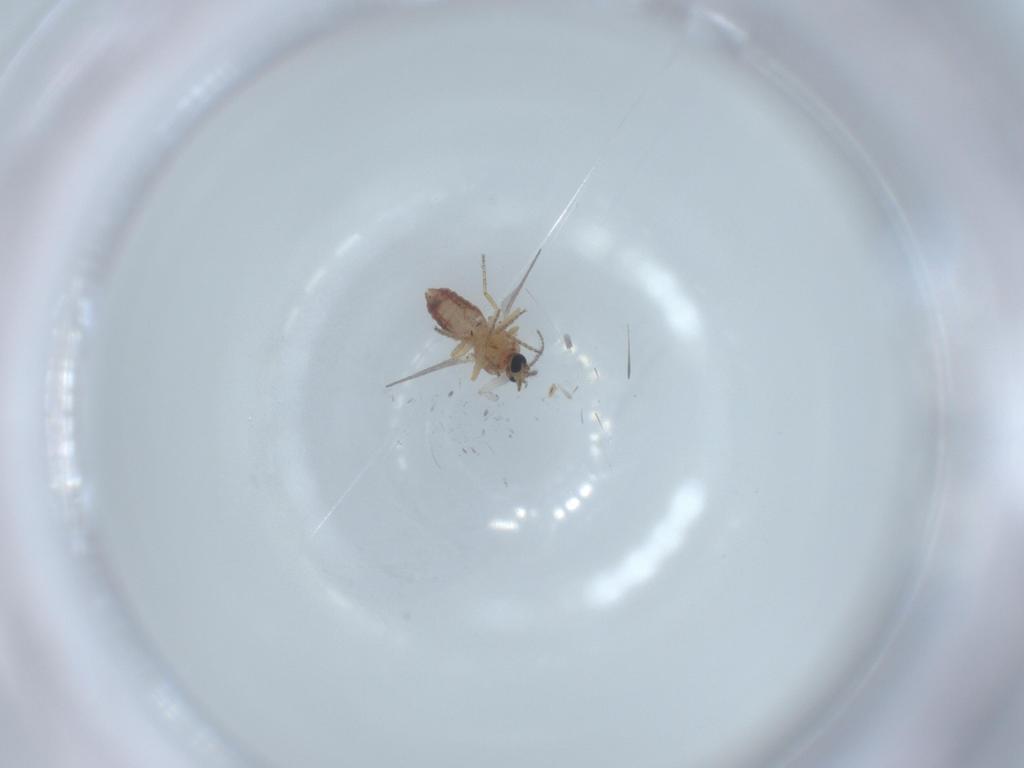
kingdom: Animalia
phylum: Arthropoda
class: Insecta
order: Diptera
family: Ceratopogonidae
